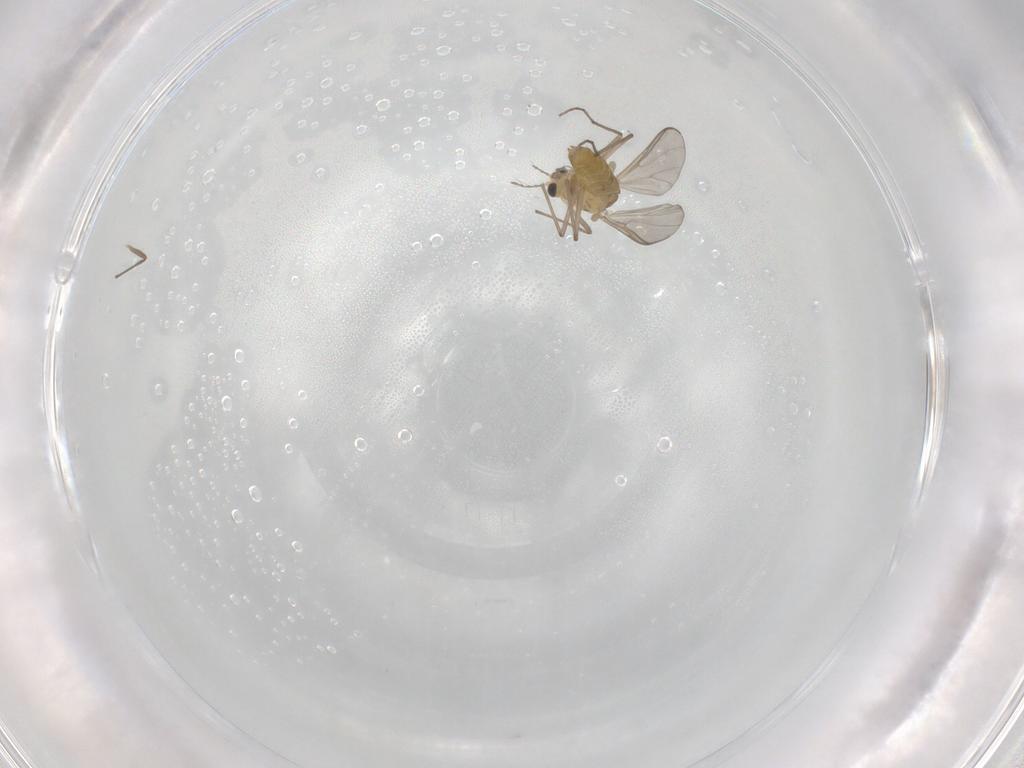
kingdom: Animalia
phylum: Arthropoda
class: Insecta
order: Diptera
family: Chironomidae
